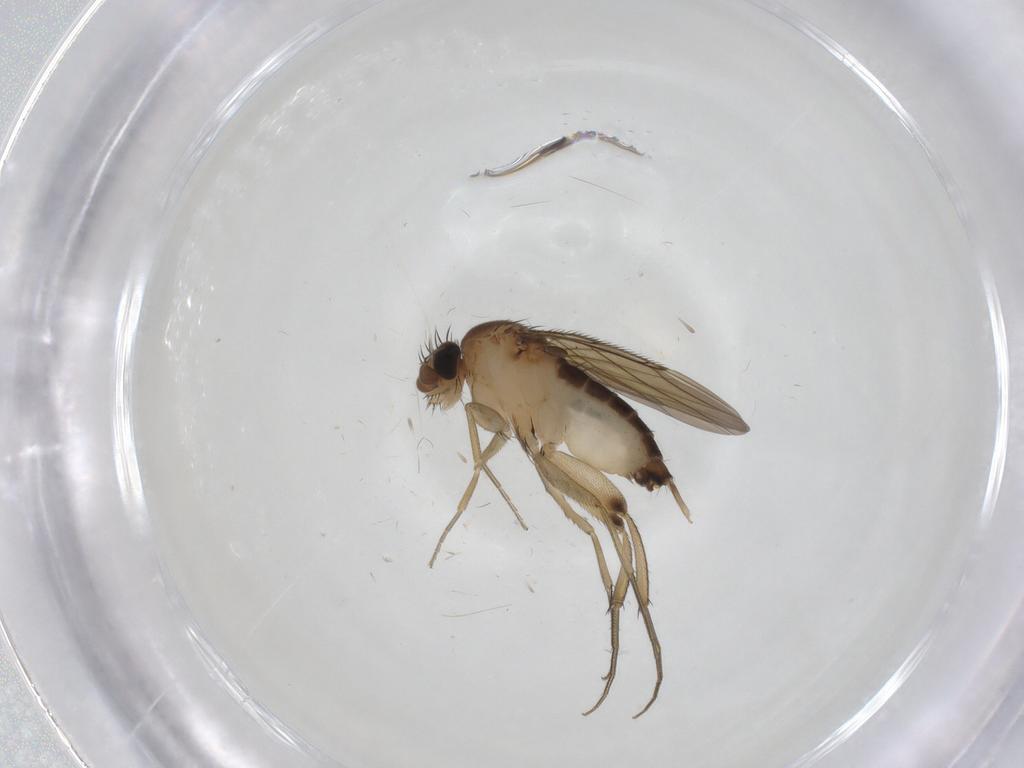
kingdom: Animalia
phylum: Arthropoda
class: Insecta
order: Diptera
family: Phoridae
